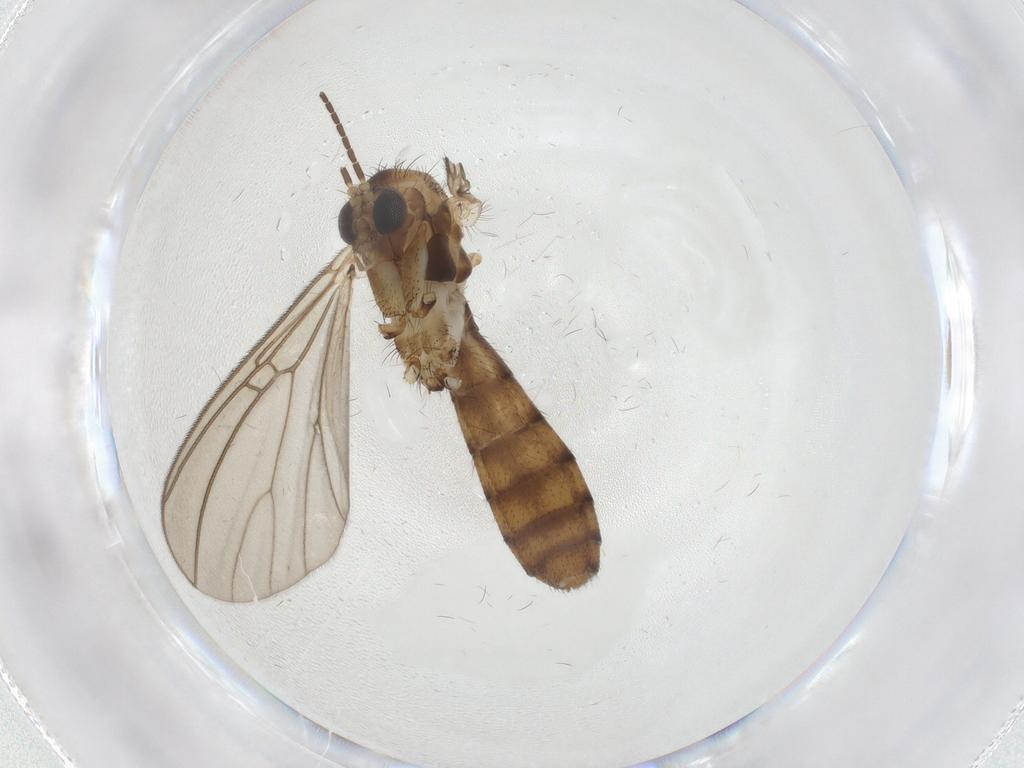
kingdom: Animalia
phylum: Arthropoda
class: Insecta
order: Diptera
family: Mycetophilidae
